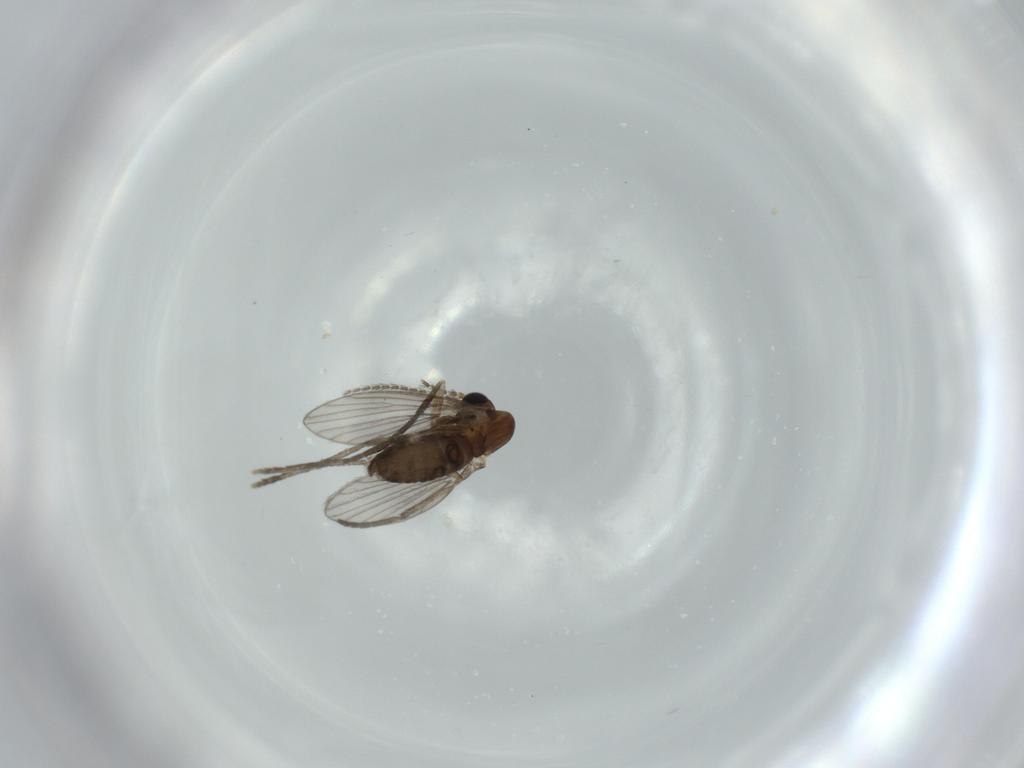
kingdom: Animalia
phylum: Arthropoda
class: Insecta
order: Diptera
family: Psychodidae
